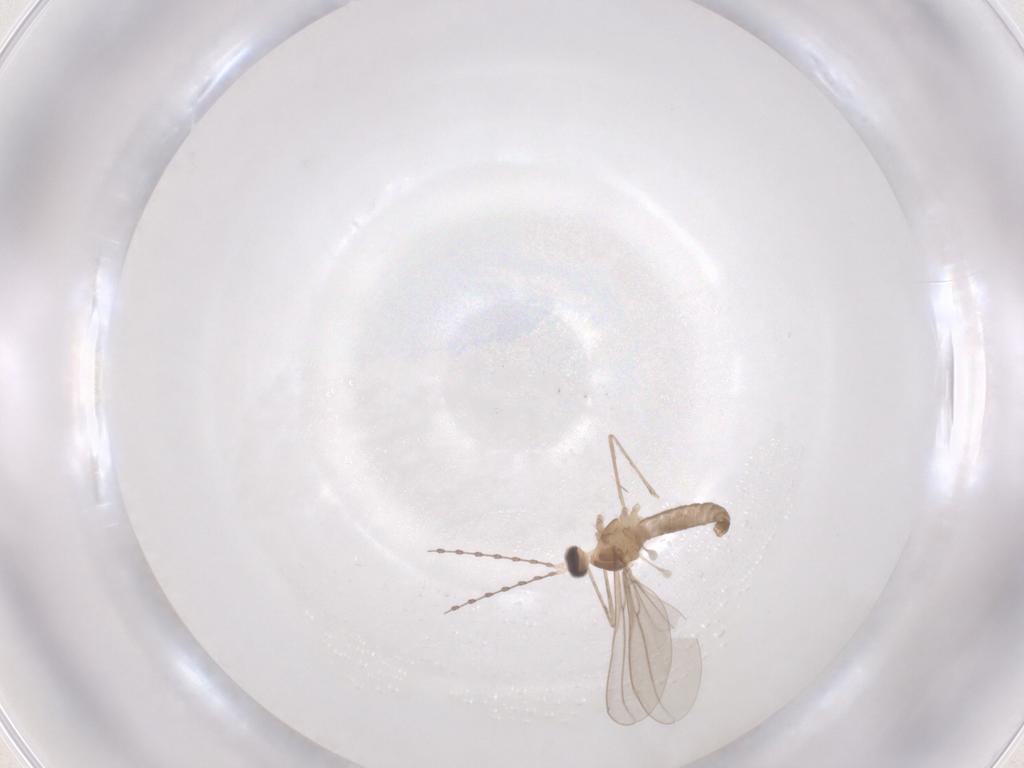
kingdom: Animalia
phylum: Arthropoda
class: Insecta
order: Diptera
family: Cecidomyiidae
